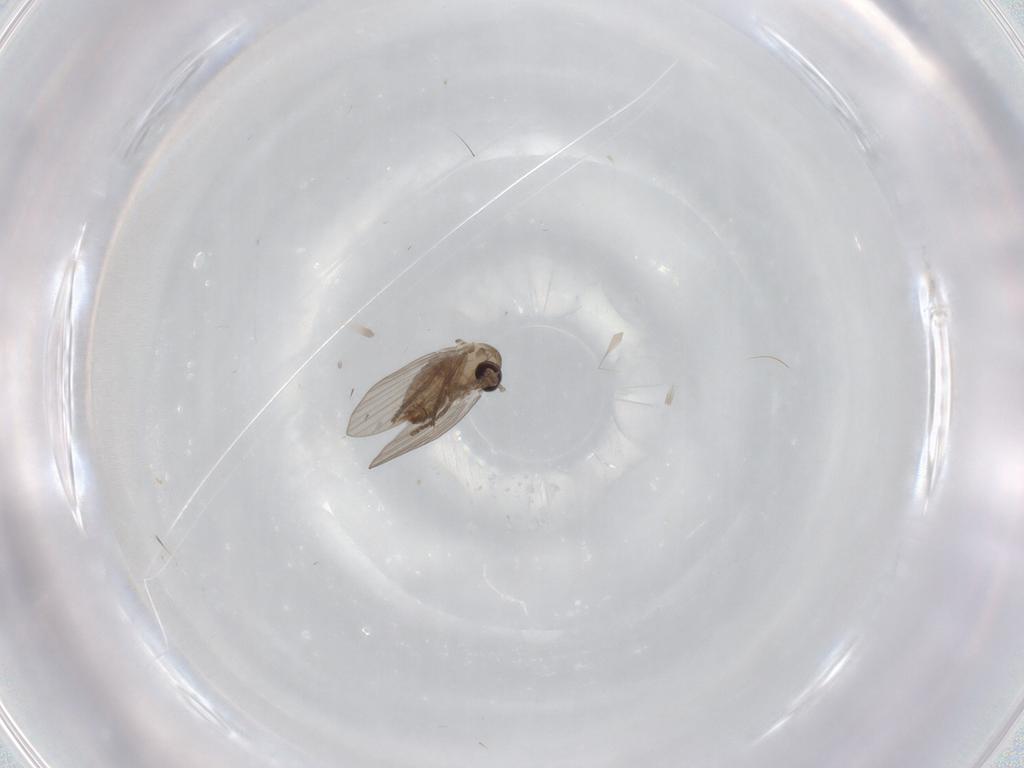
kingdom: Animalia
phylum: Arthropoda
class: Insecta
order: Diptera
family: Psychodidae
